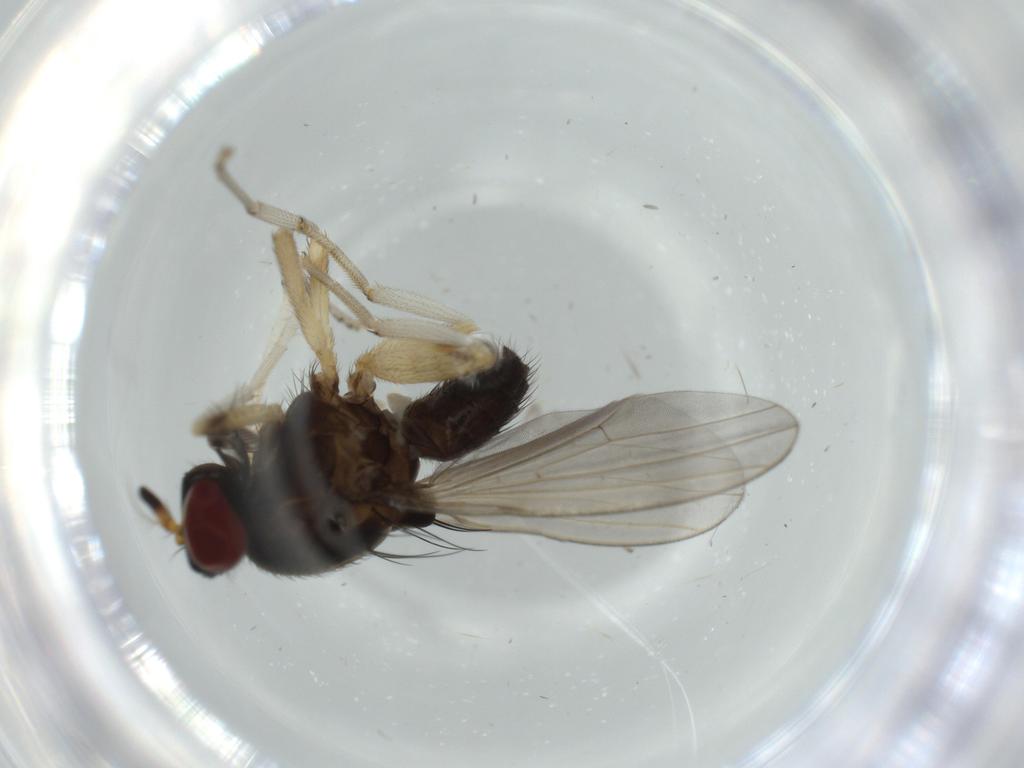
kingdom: Animalia
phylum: Arthropoda
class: Insecta
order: Diptera
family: Lauxaniidae
